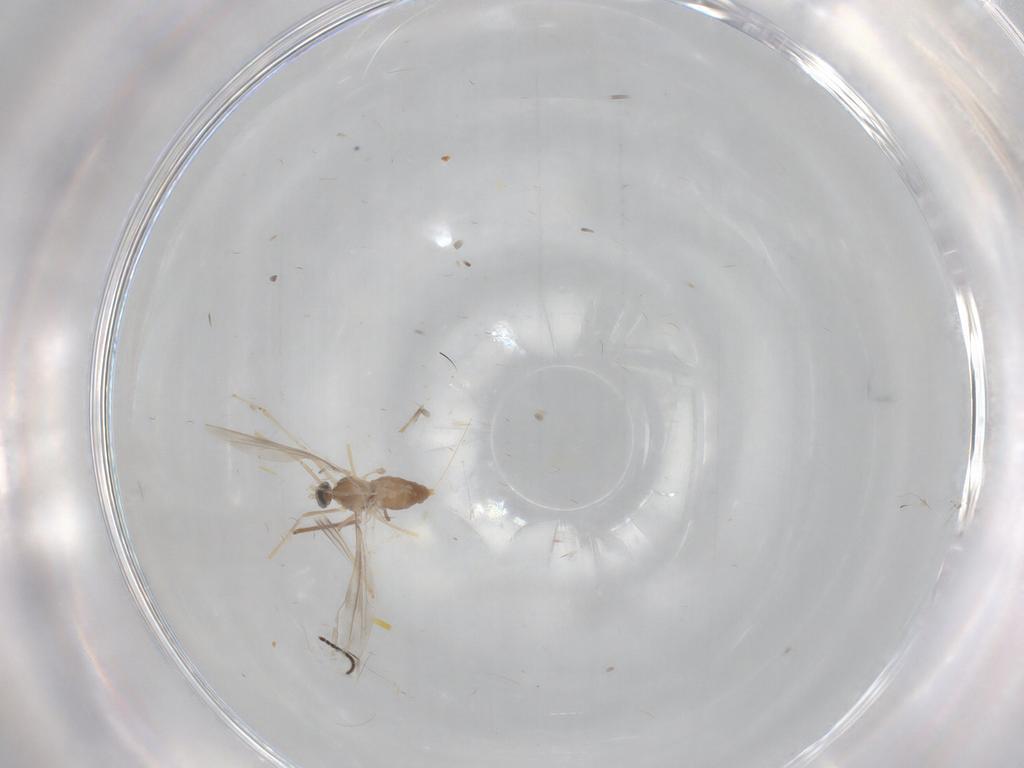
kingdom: Animalia
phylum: Arthropoda
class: Insecta
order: Diptera
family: Cecidomyiidae
